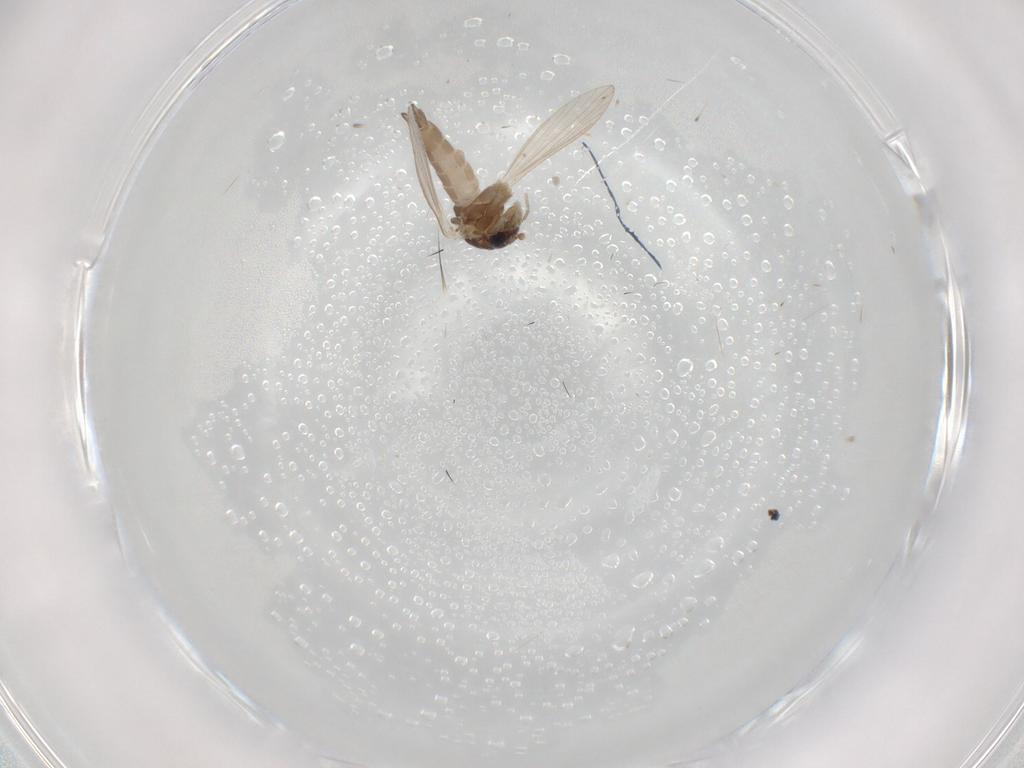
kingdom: Animalia
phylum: Arthropoda
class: Insecta
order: Diptera
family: Psychodidae
